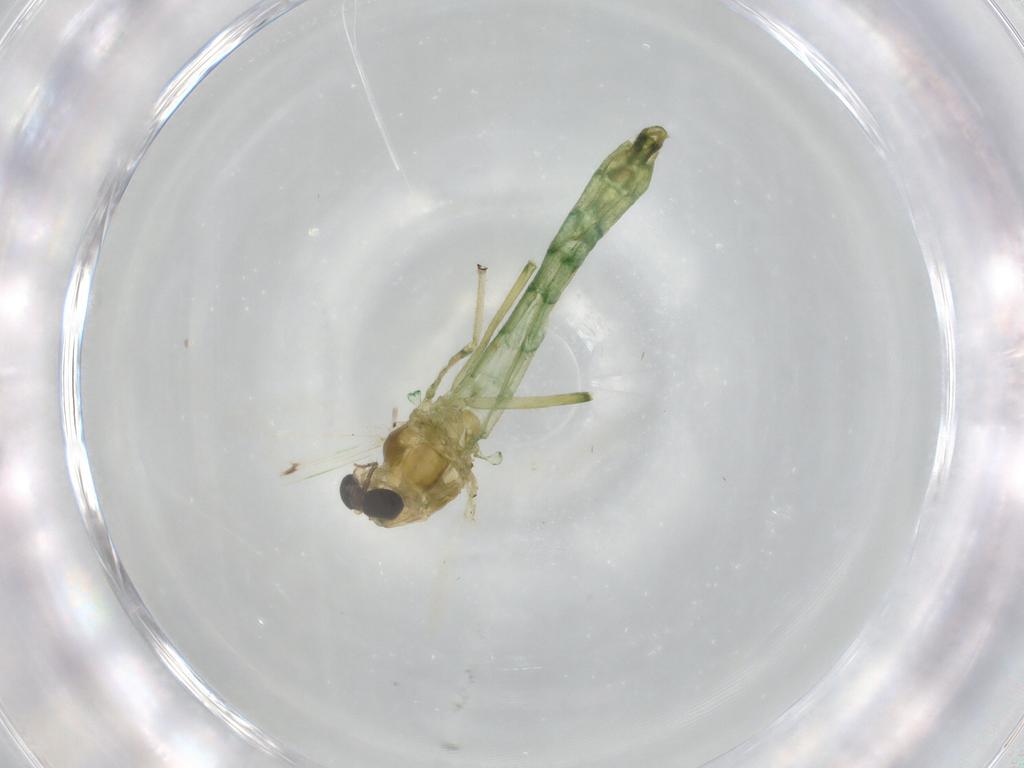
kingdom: Animalia
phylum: Arthropoda
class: Insecta
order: Diptera
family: Chironomidae
